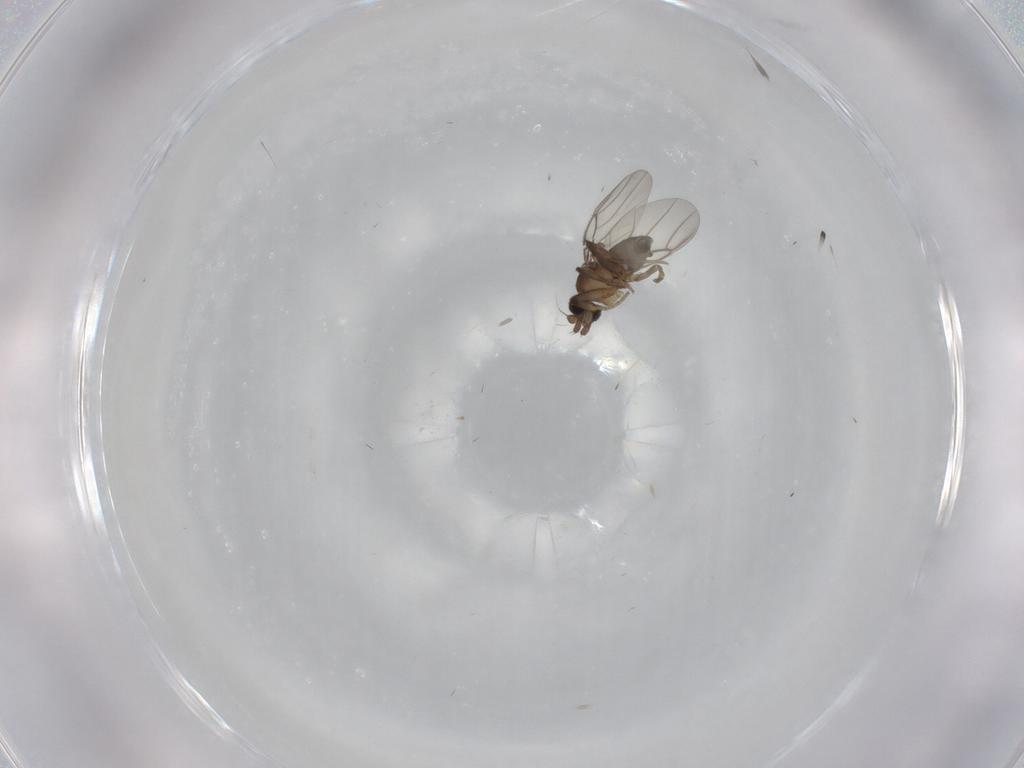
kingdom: Animalia
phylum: Arthropoda
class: Insecta
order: Diptera
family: Phoridae
